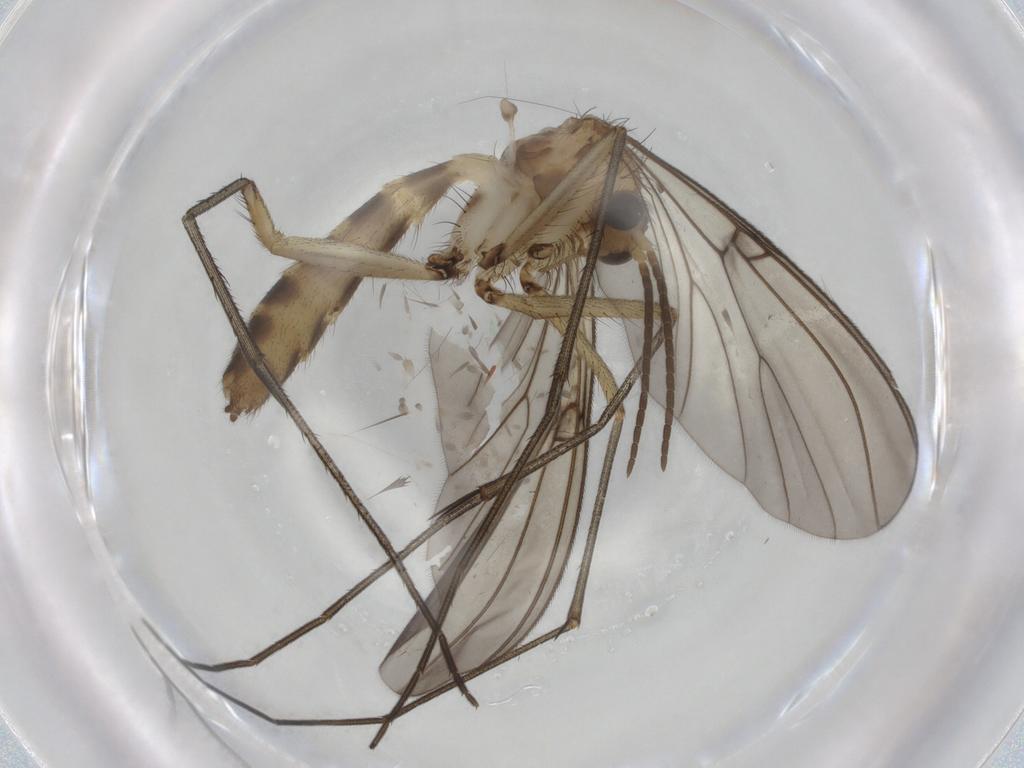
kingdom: Animalia
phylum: Arthropoda
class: Insecta
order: Diptera
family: Mycetophilidae
